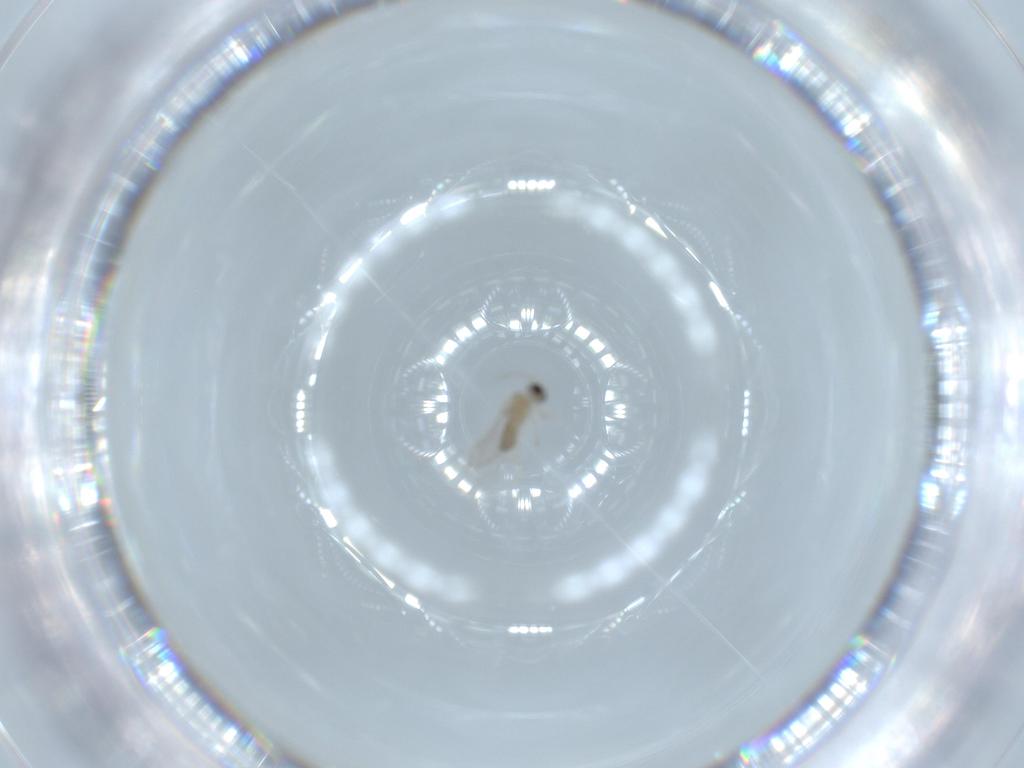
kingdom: Animalia
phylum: Arthropoda
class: Insecta
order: Diptera
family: Cecidomyiidae
